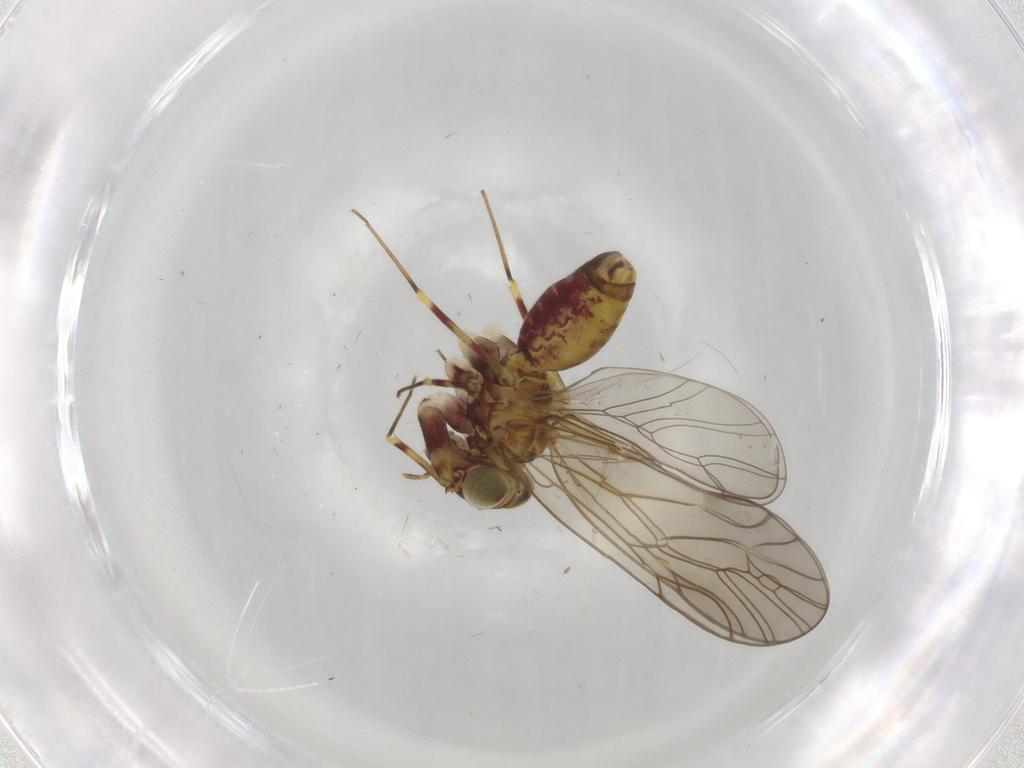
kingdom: Animalia
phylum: Arthropoda
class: Insecta
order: Psocodea
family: Philotarsidae
